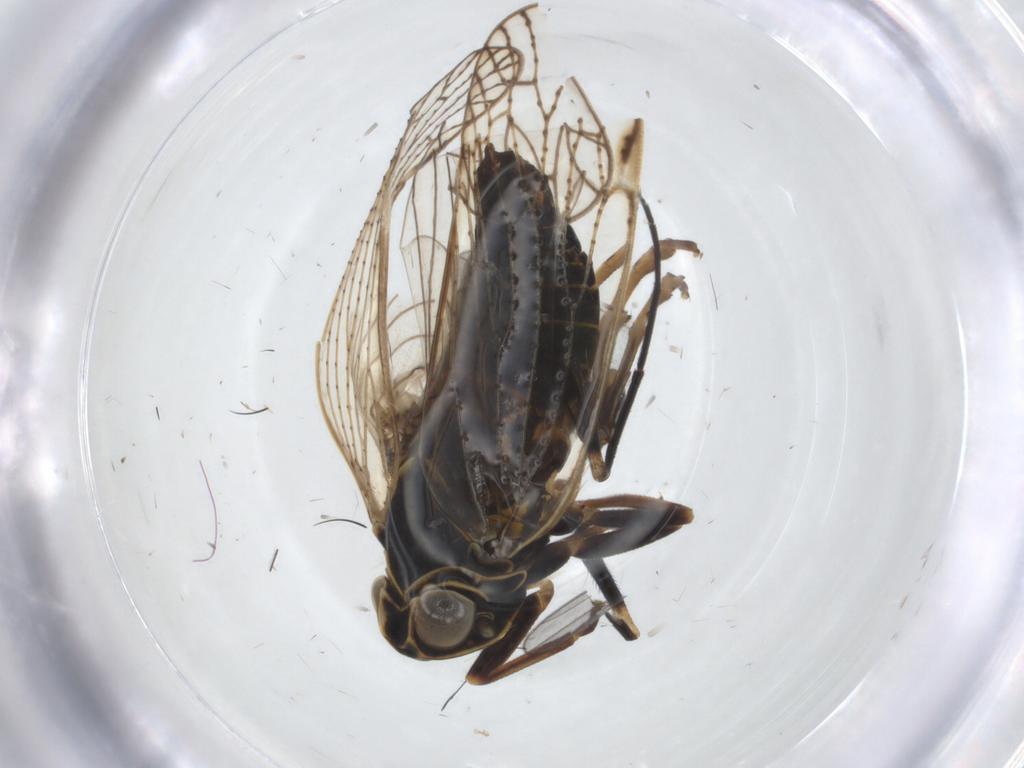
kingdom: Animalia
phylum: Arthropoda
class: Insecta
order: Hemiptera
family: Cixiidae
